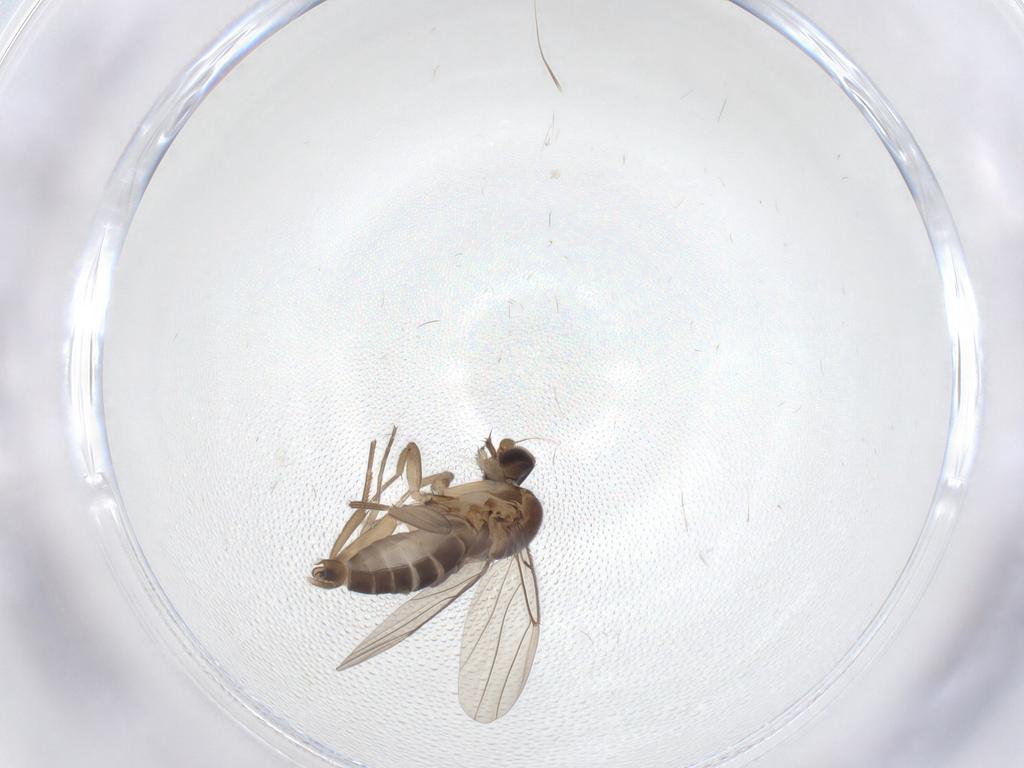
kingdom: Animalia
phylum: Arthropoda
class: Insecta
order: Diptera
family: Phoridae
